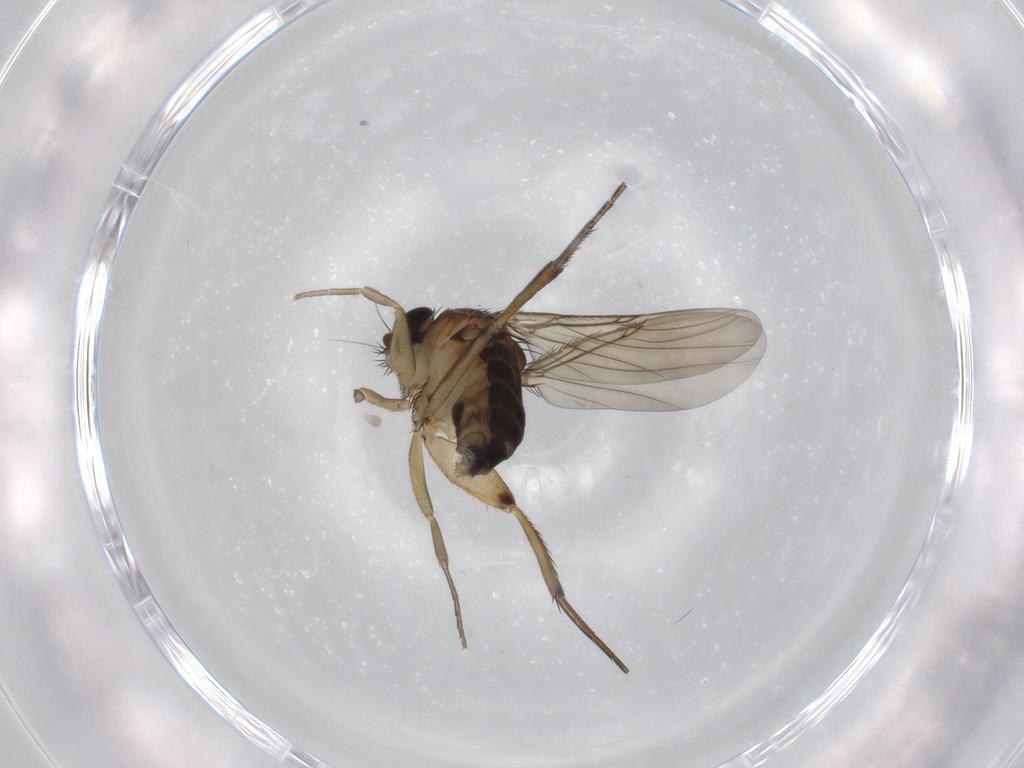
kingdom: Animalia
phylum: Arthropoda
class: Insecta
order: Diptera
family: Phoridae
